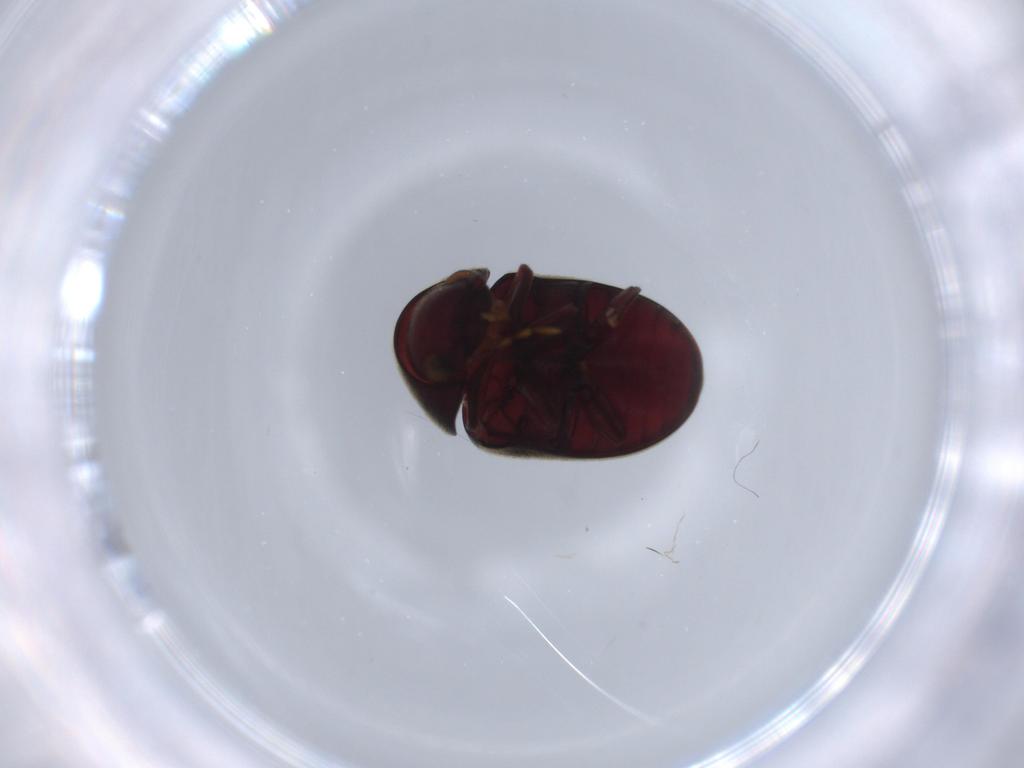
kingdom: Animalia
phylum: Arthropoda
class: Insecta
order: Coleoptera
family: Ptinidae
